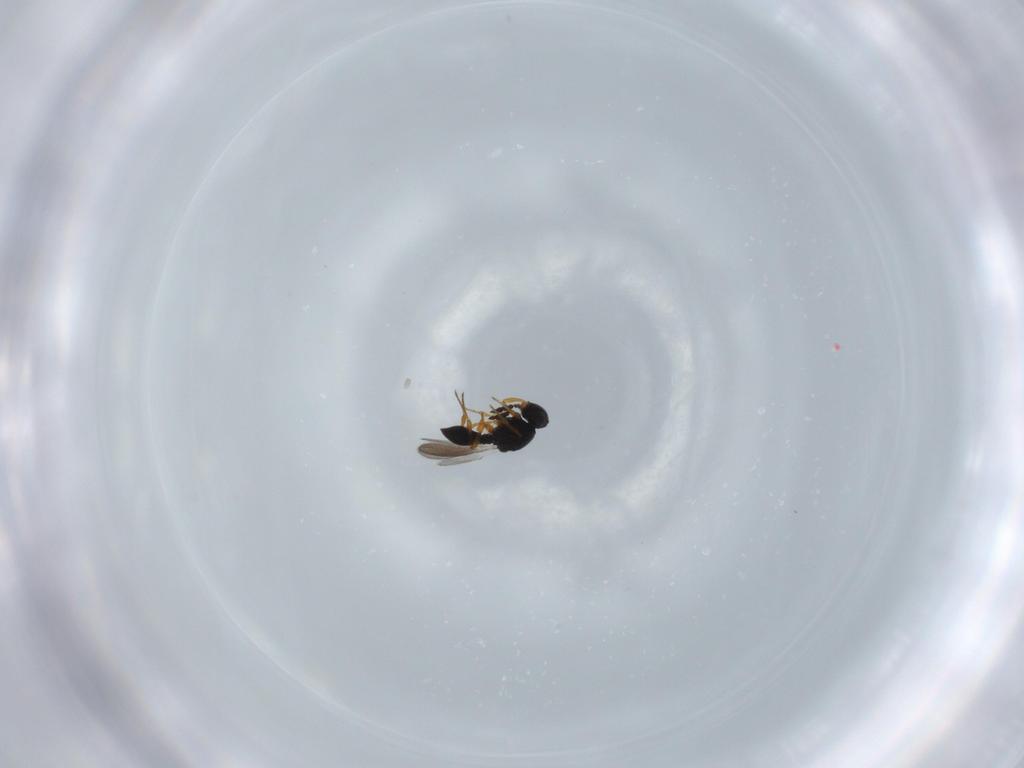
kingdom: Animalia
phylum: Arthropoda
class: Insecta
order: Hymenoptera
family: Platygastridae
